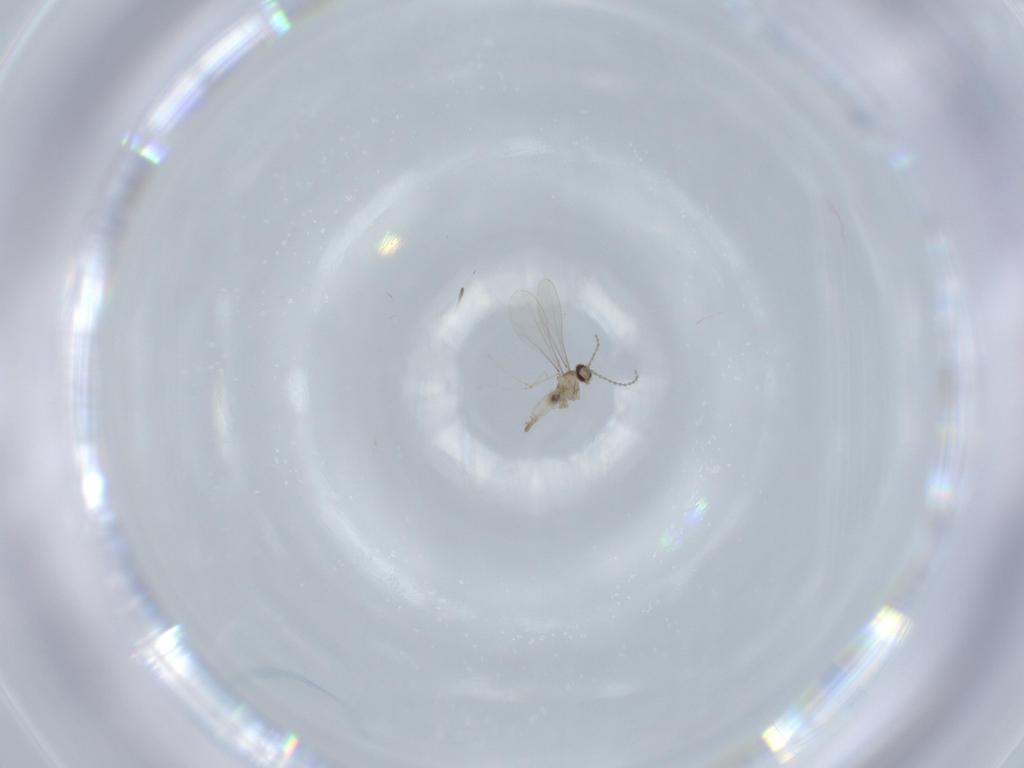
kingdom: Animalia
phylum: Arthropoda
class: Insecta
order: Diptera
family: Cecidomyiidae
